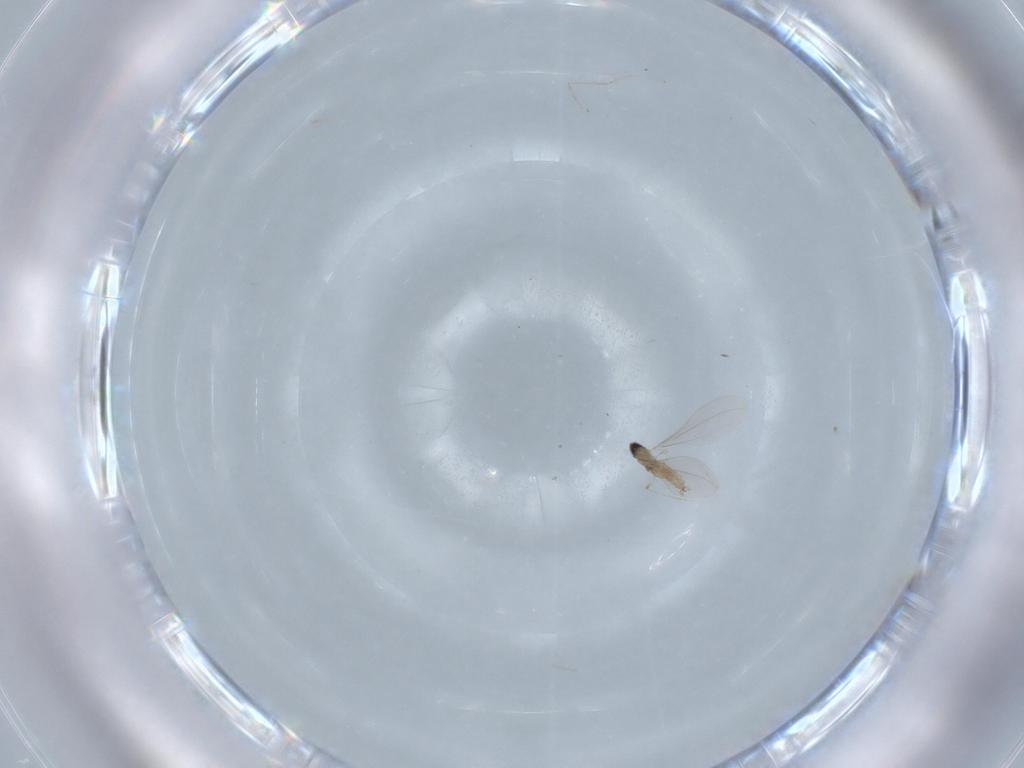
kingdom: Animalia
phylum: Arthropoda
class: Insecta
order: Diptera
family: Cecidomyiidae
